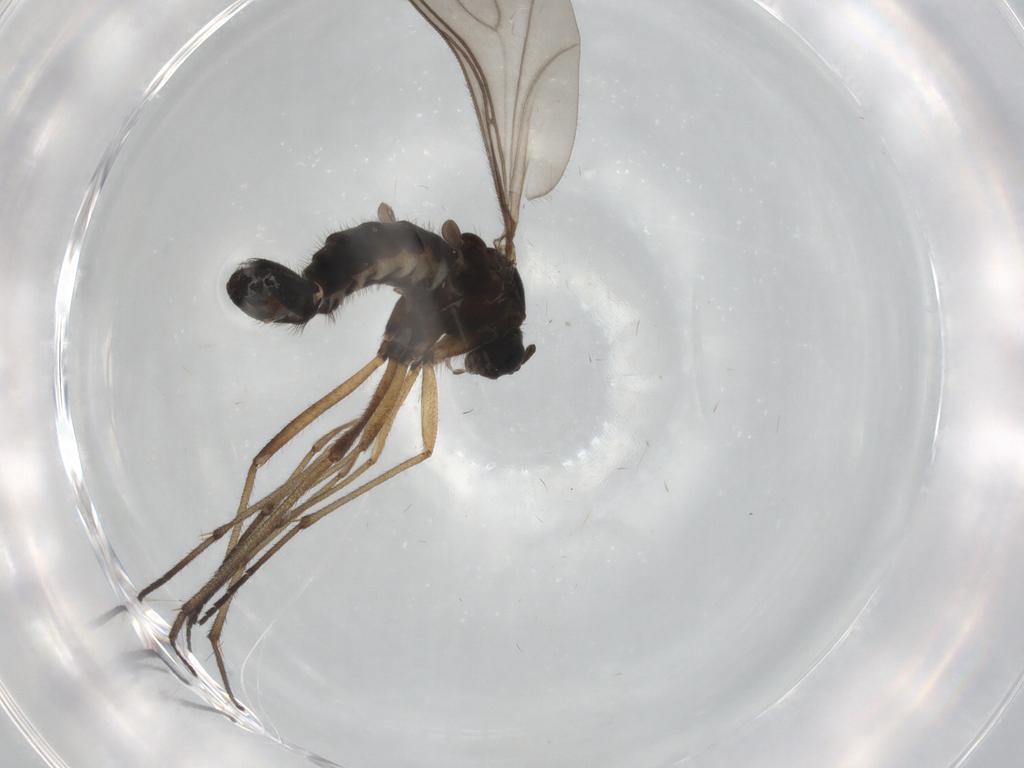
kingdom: Animalia
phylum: Arthropoda
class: Insecta
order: Diptera
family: Sciaridae
